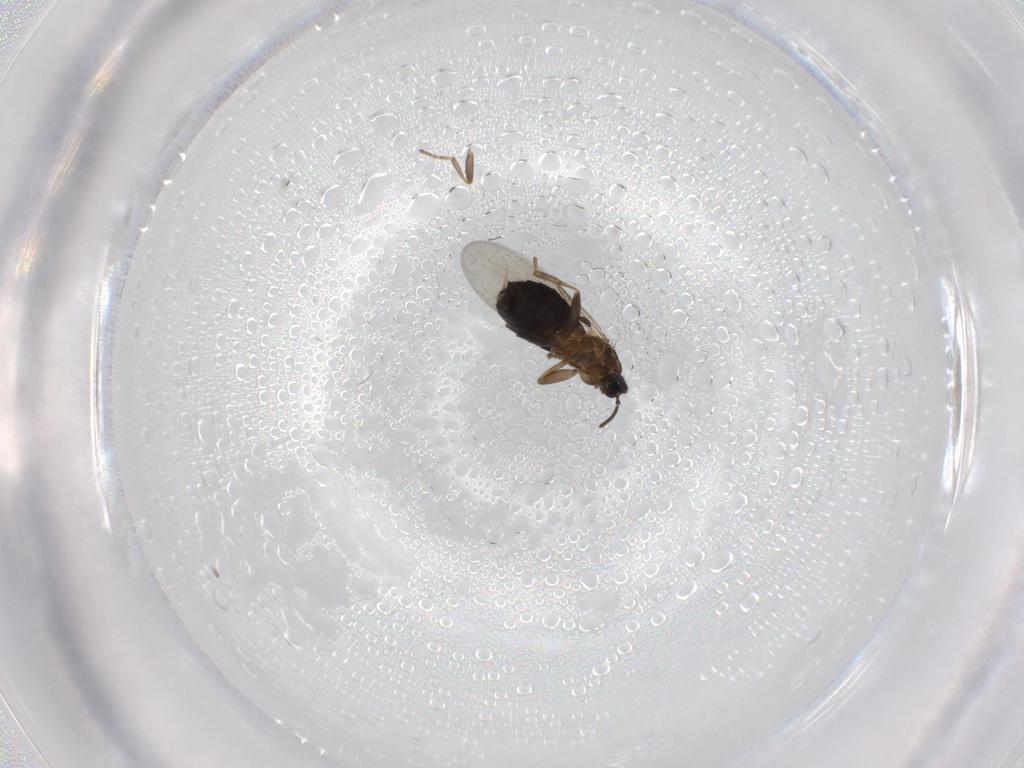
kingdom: Animalia
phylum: Arthropoda
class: Insecta
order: Diptera
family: Scatopsidae
